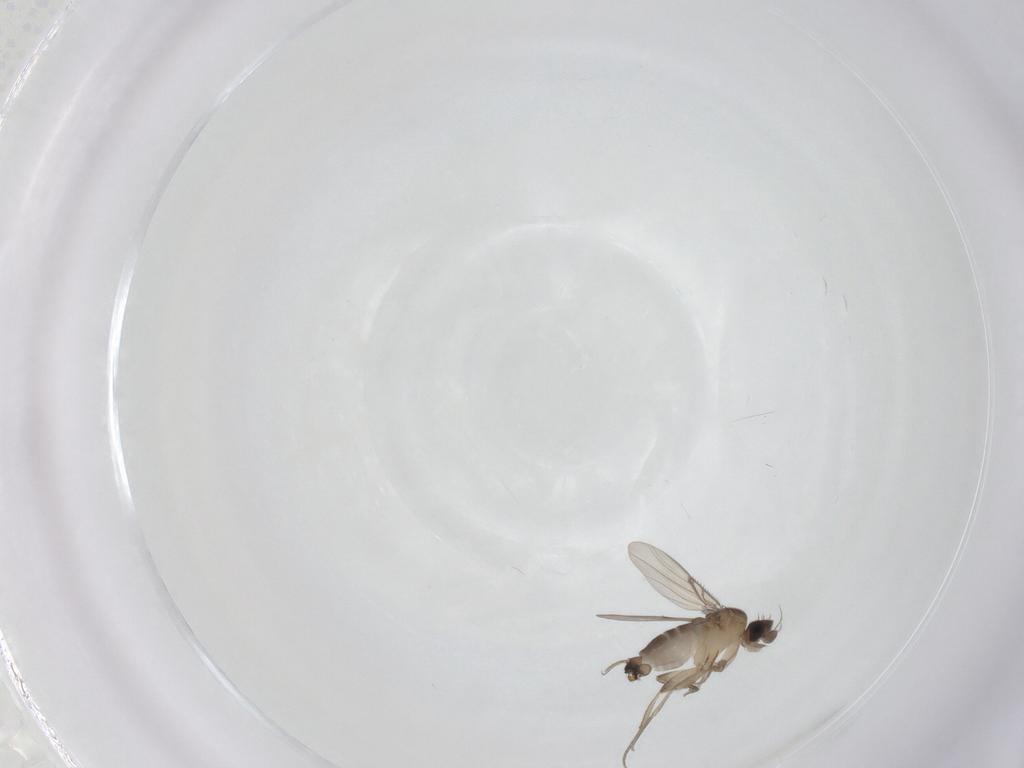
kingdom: Animalia
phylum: Arthropoda
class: Insecta
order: Diptera
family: Phoridae
